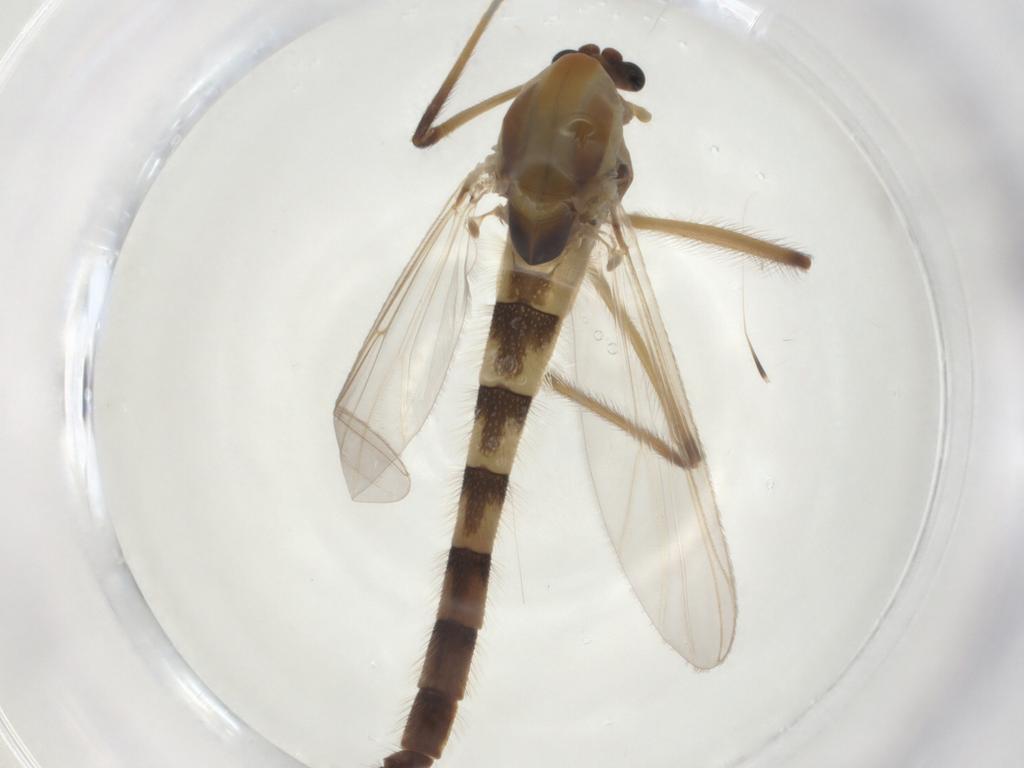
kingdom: Animalia
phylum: Arthropoda
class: Insecta
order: Diptera
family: Chironomidae
